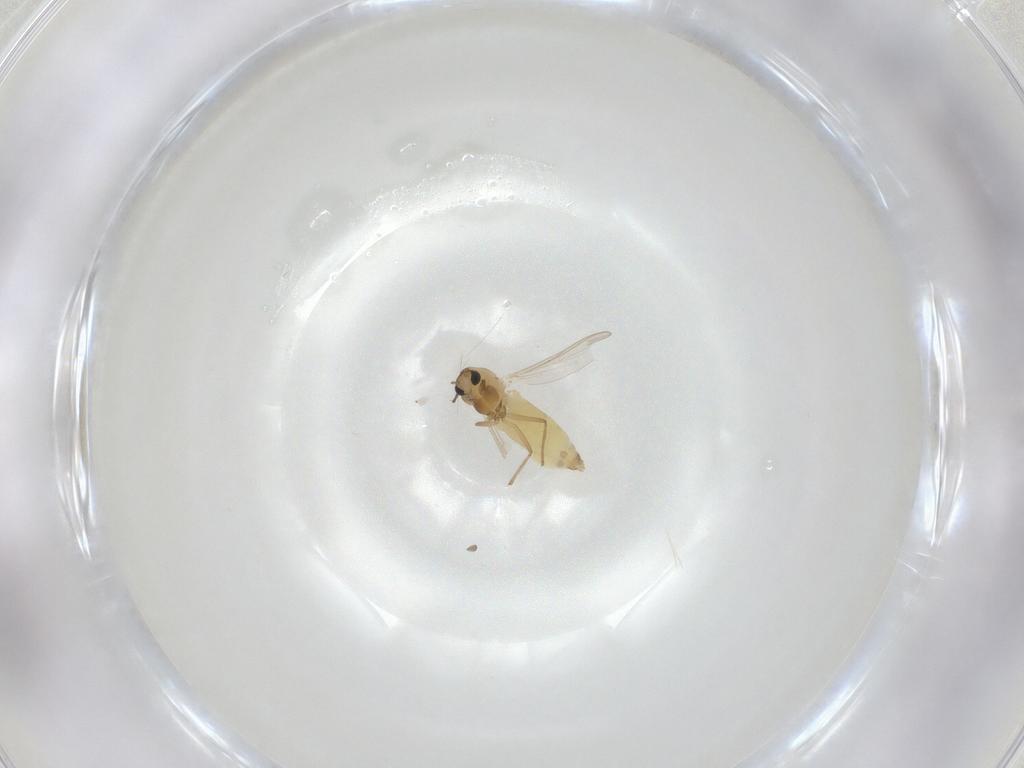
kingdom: Animalia
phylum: Arthropoda
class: Insecta
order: Diptera
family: Chironomidae
